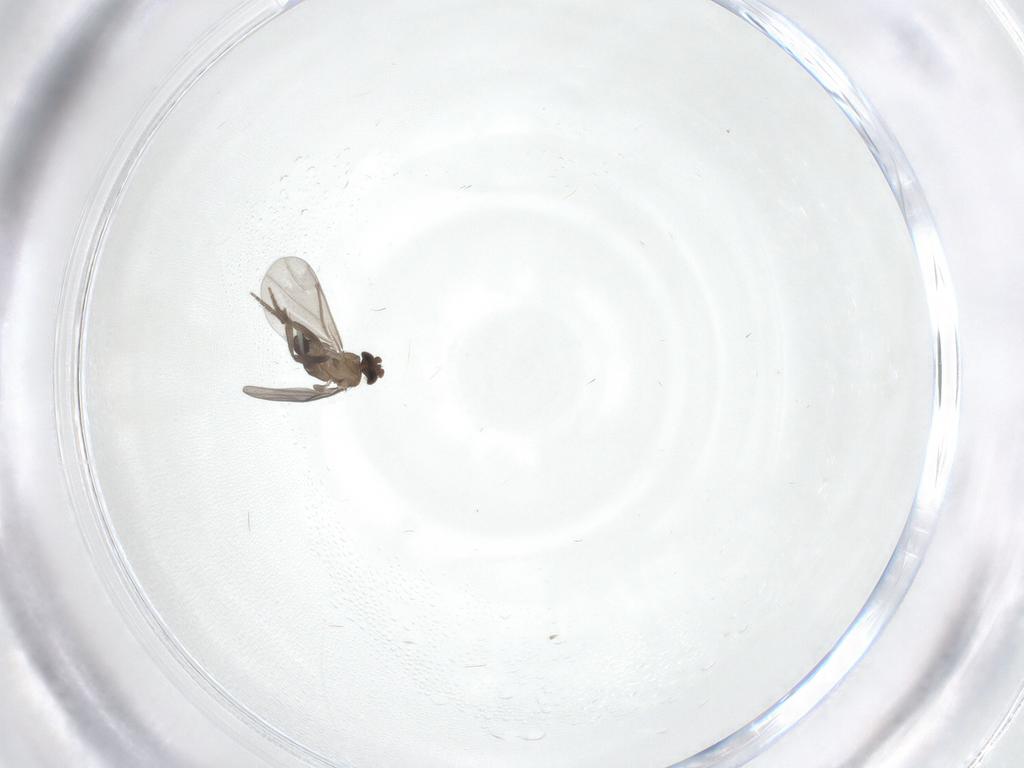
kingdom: Animalia
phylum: Arthropoda
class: Insecta
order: Diptera
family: Phoridae
